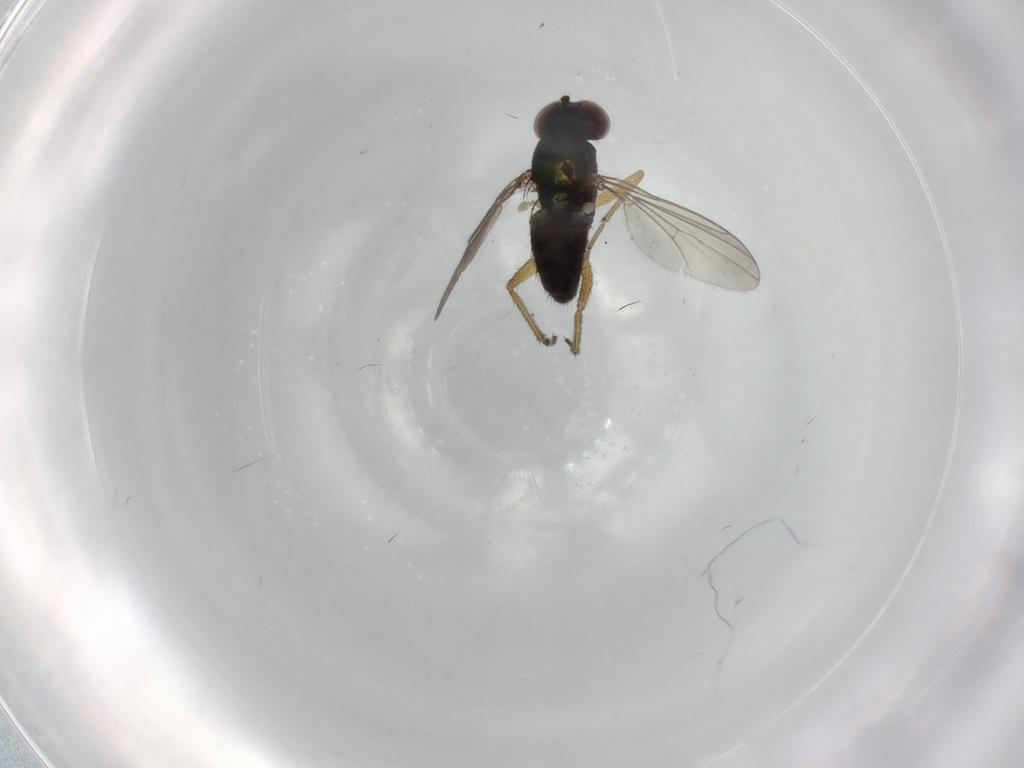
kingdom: Animalia
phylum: Arthropoda
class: Insecta
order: Diptera
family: Dolichopodidae
